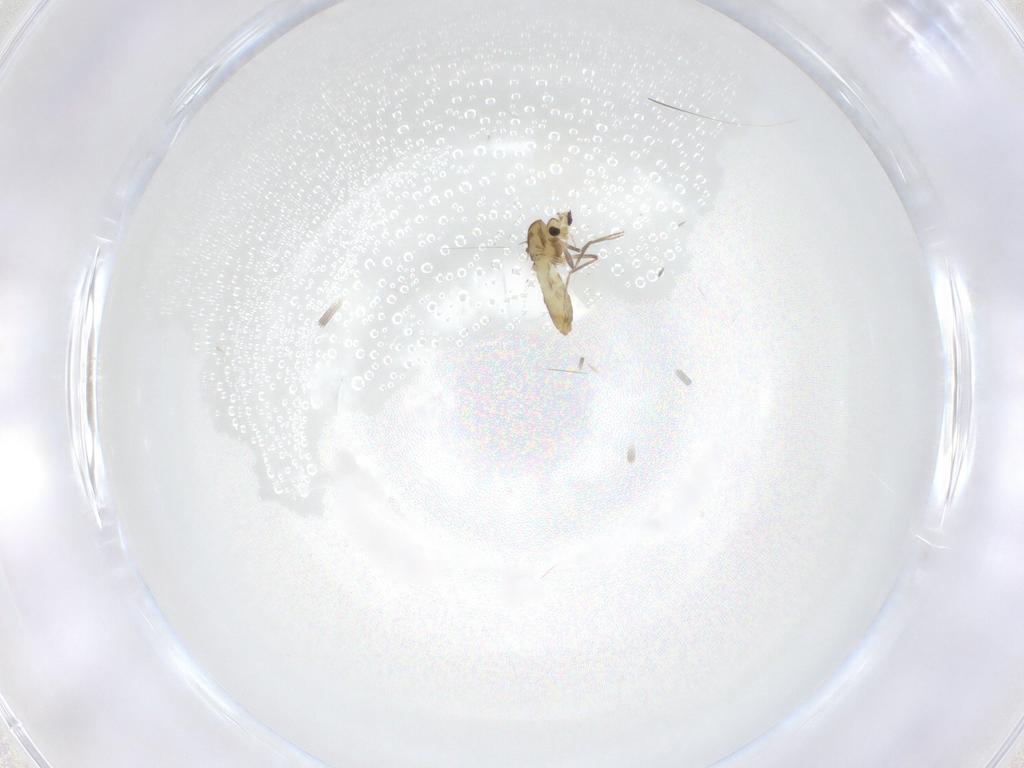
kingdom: Animalia
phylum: Arthropoda
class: Insecta
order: Diptera
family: Chironomidae
